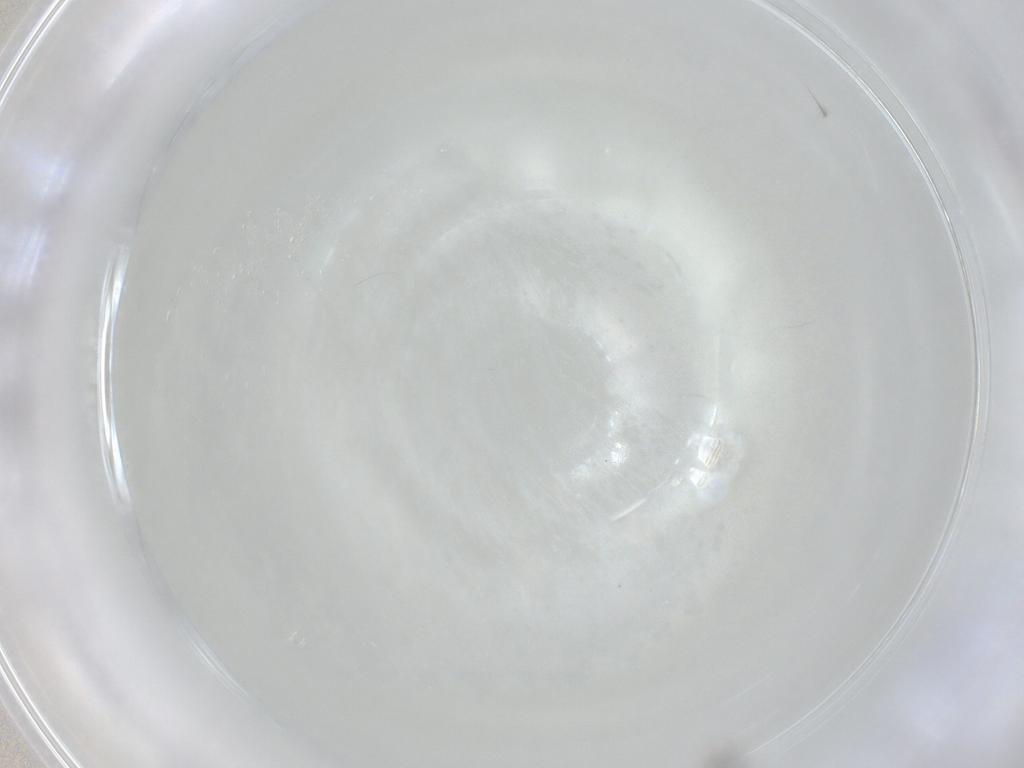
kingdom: Animalia
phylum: Arthropoda
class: Insecta
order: Diptera
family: Chironomidae
